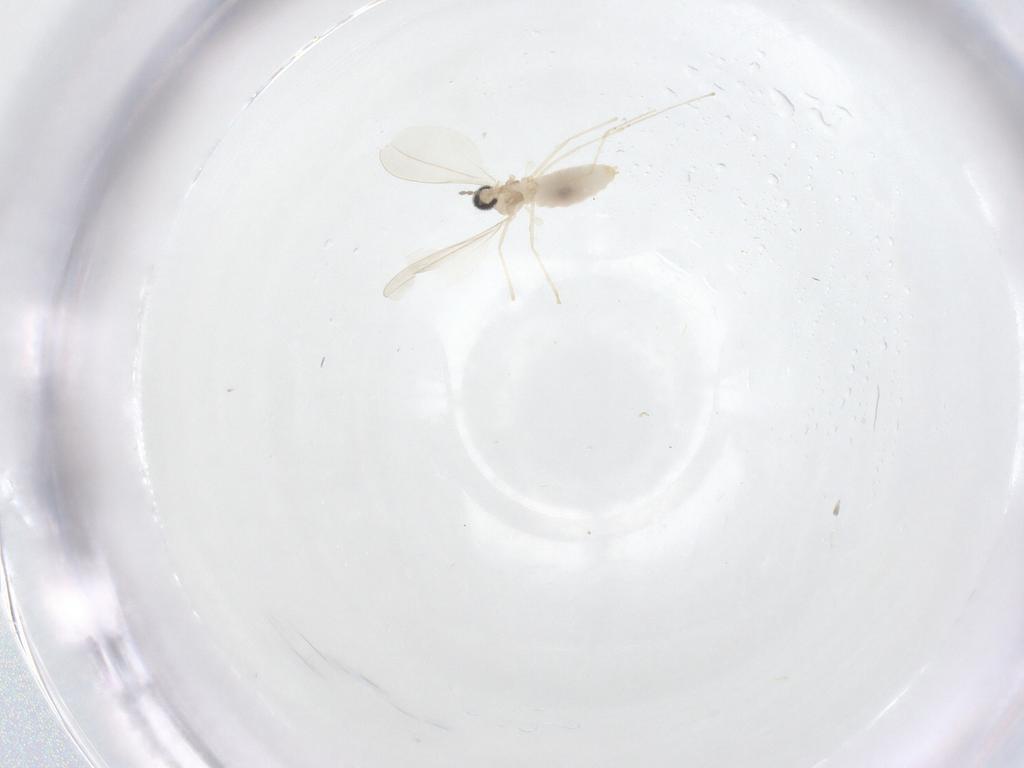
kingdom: Animalia
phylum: Arthropoda
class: Insecta
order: Diptera
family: Cecidomyiidae
